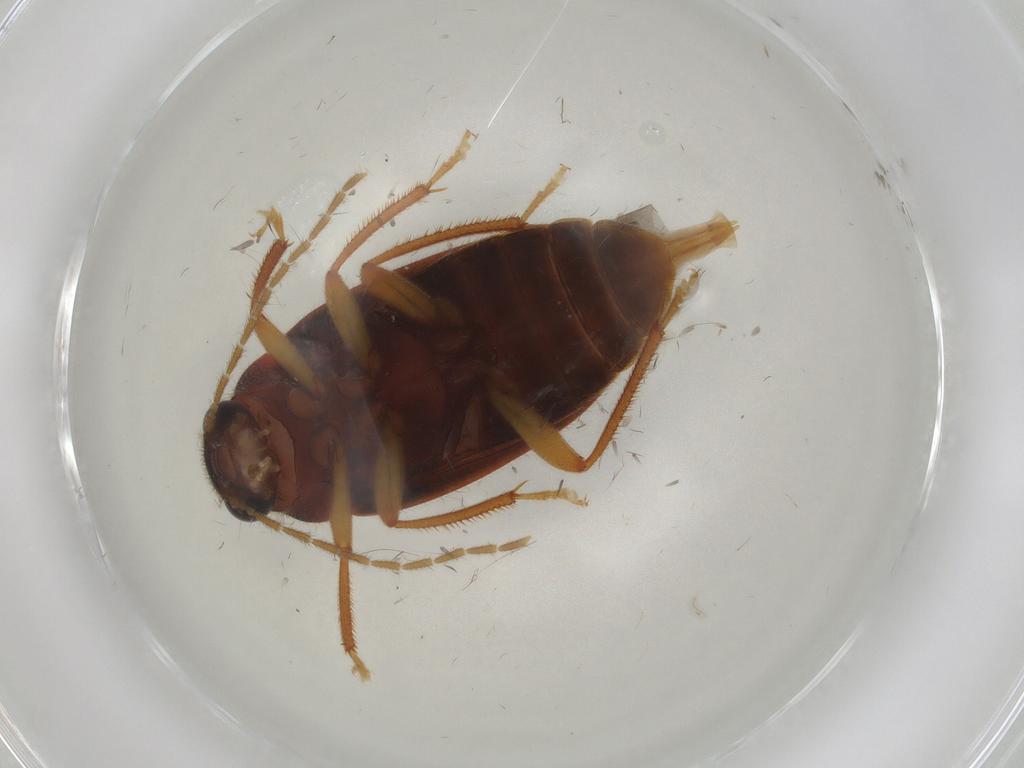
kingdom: Animalia
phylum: Arthropoda
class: Insecta
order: Coleoptera
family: Ptilodactylidae
